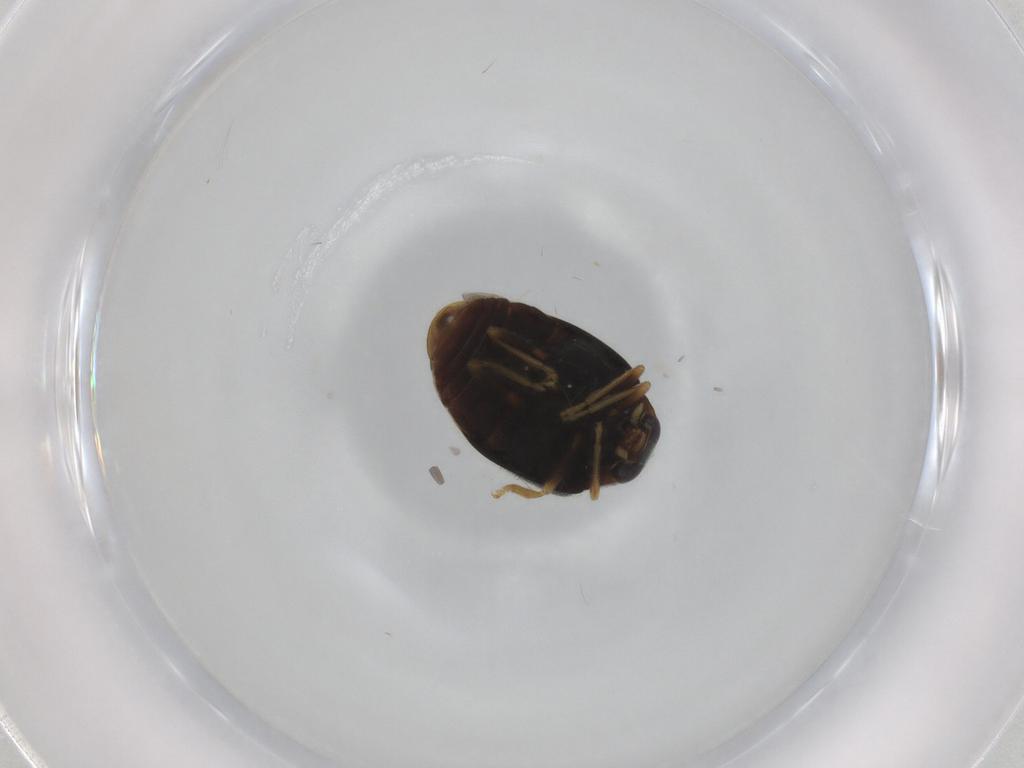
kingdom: Animalia
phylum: Arthropoda
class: Insecta
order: Coleoptera
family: Coccinellidae
